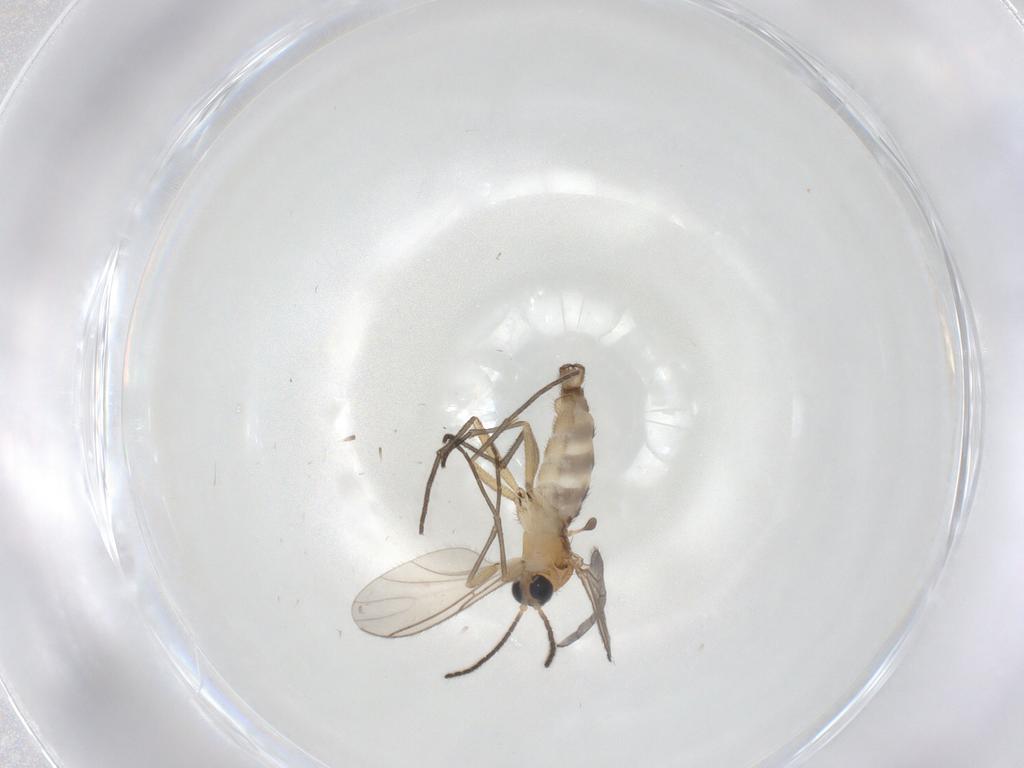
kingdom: Animalia
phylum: Arthropoda
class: Insecta
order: Diptera
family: Sciaridae
